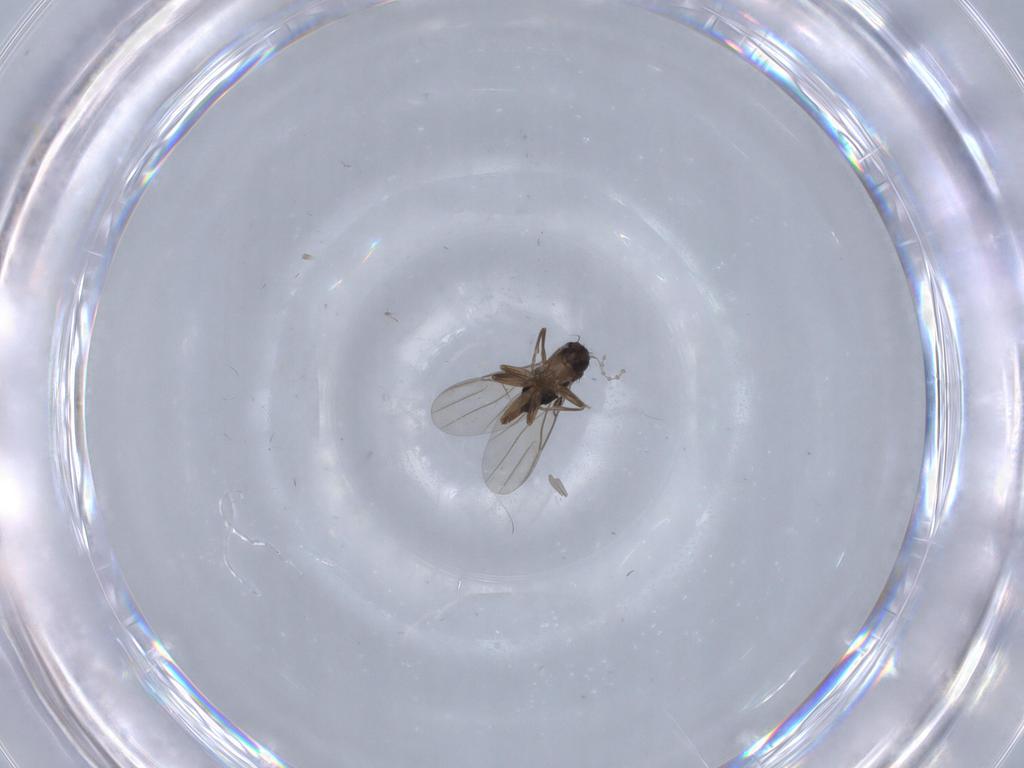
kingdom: Animalia
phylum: Arthropoda
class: Insecta
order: Diptera
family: Phoridae
